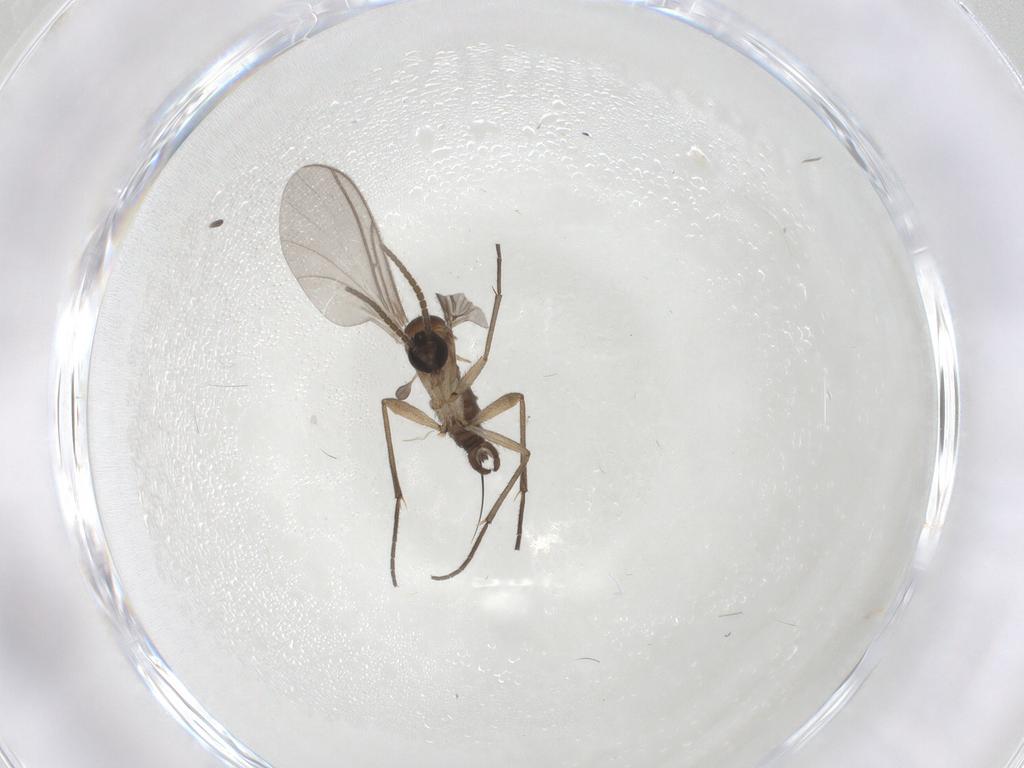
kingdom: Animalia
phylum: Arthropoda
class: Insecta
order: Diptera
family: Sciaridae
